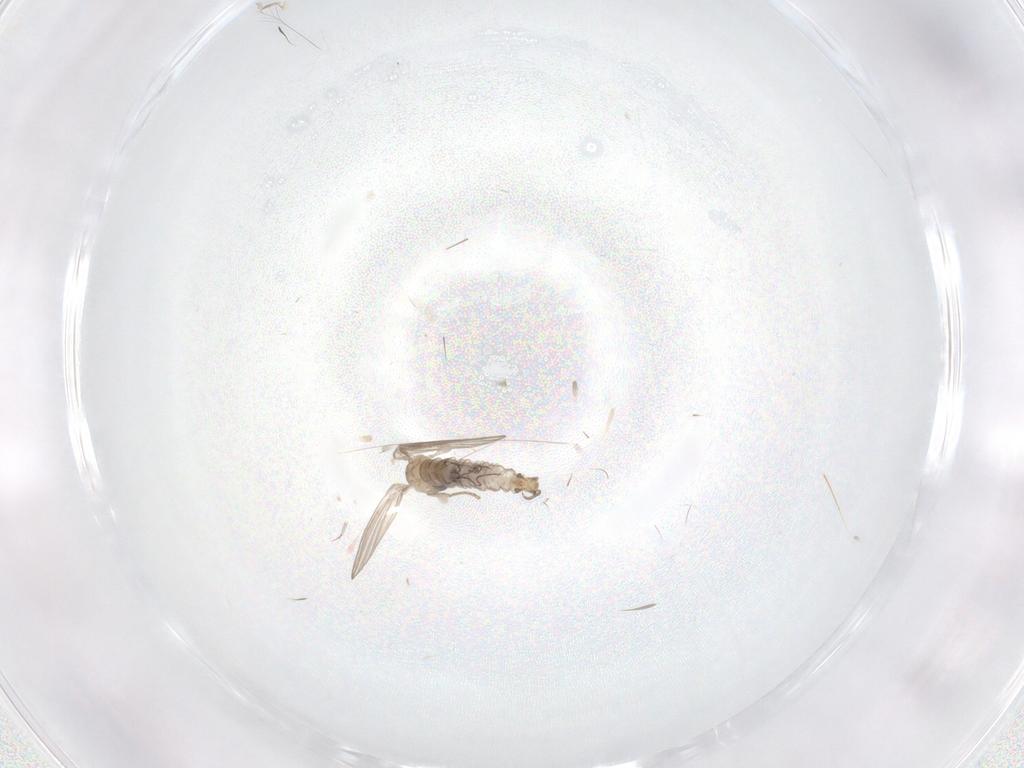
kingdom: Animalia
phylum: Arthropoda
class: Insecta
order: Diptera
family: Psychodidae
